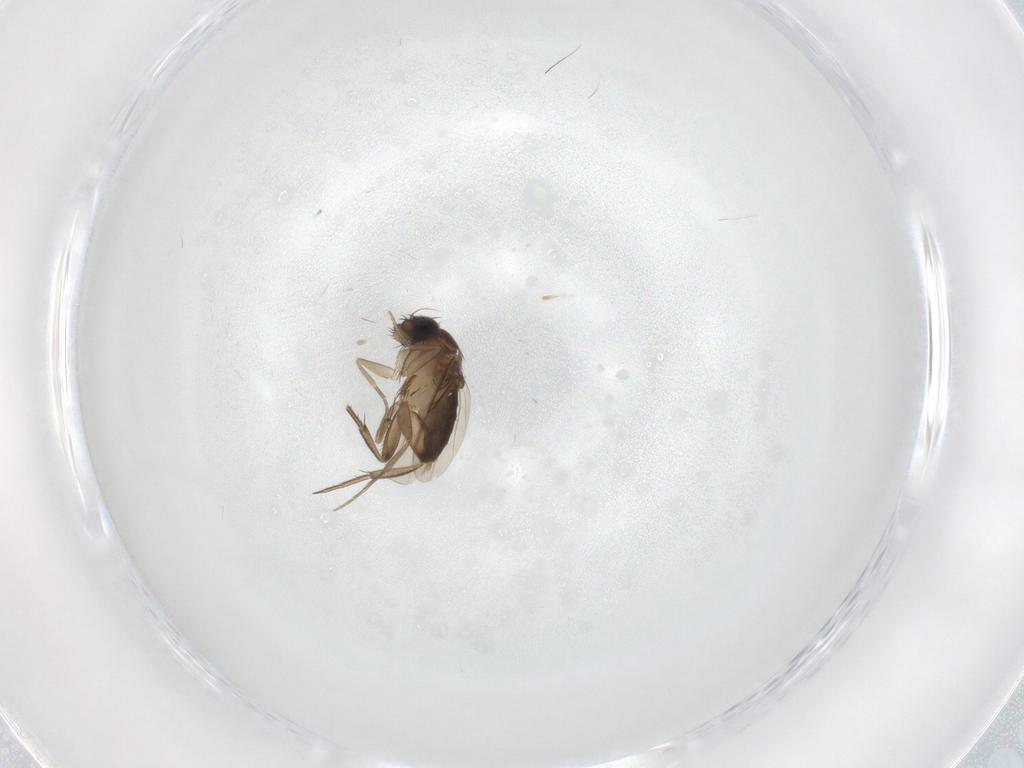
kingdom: Animalia
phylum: Arthropoda
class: Insecta
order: Diptera
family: Phoridae
